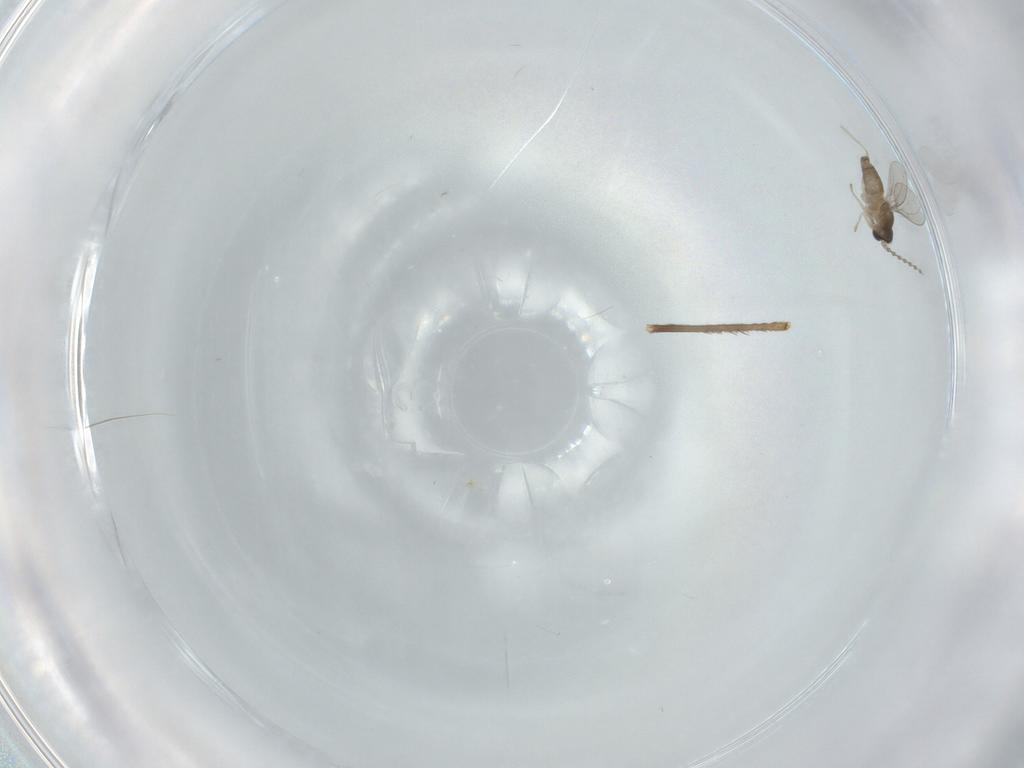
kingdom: Animalia
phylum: Arthropoda
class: Insecta
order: Diptera
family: Cecidomyiidae
